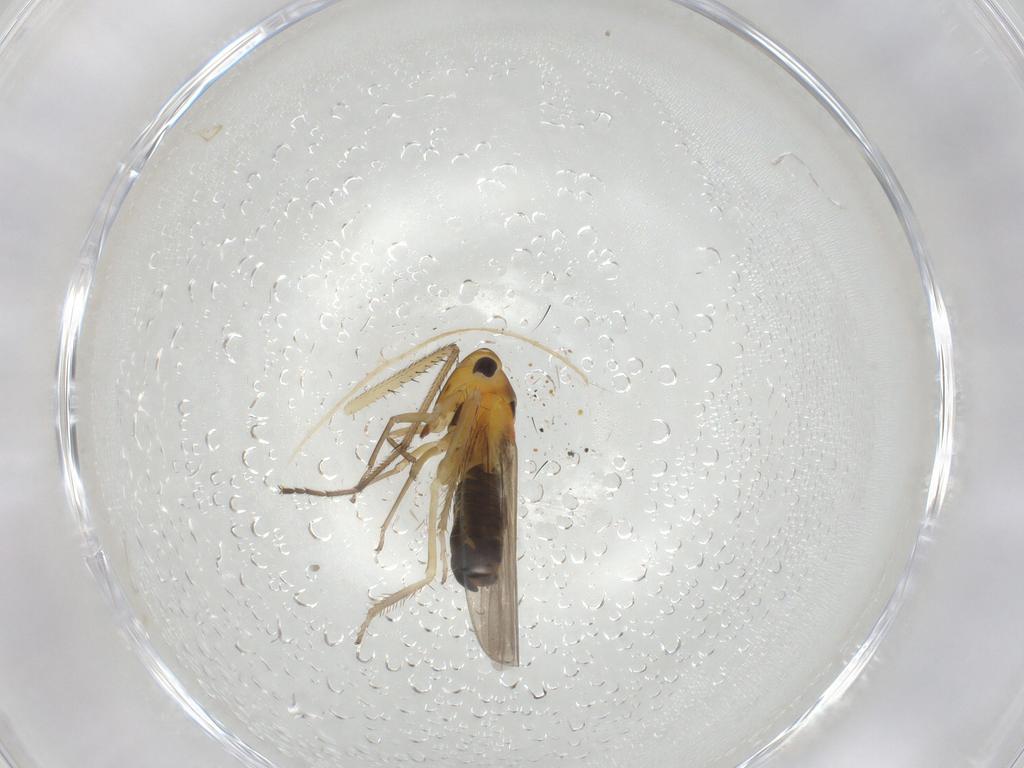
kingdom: Animalia
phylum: Arthropoda
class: Insecta
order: Hemiptera
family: Cicadellidae
